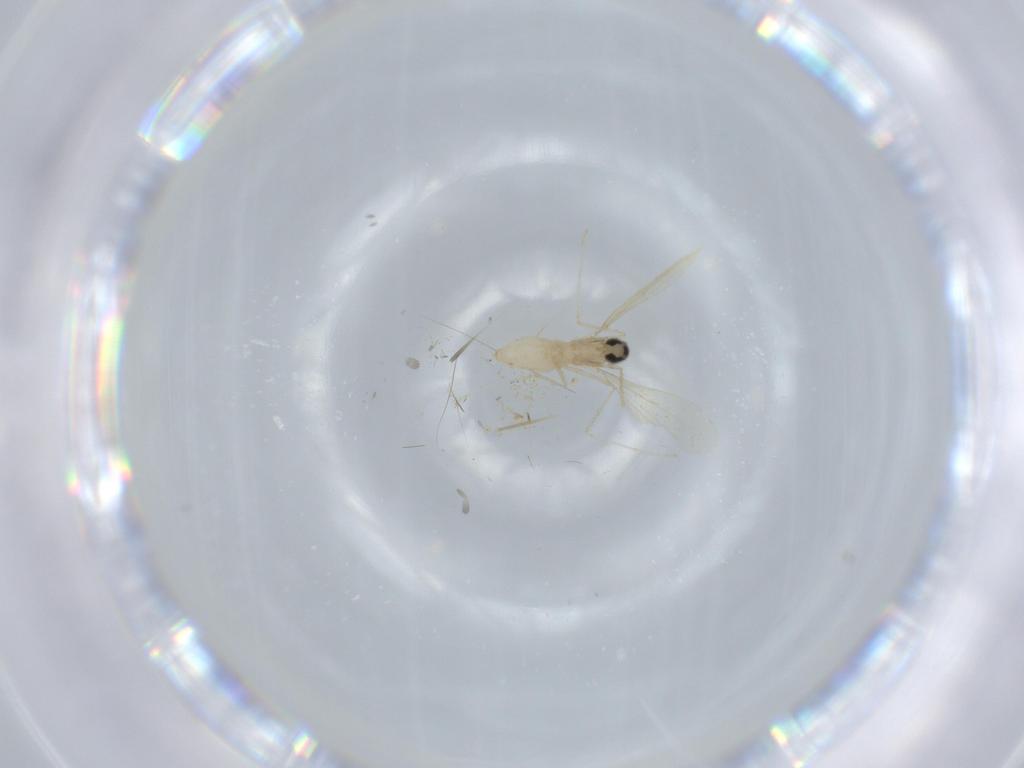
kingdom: Animalia
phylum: Arthropoda
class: Insecta
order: Diptera
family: Cecidomyiidae
